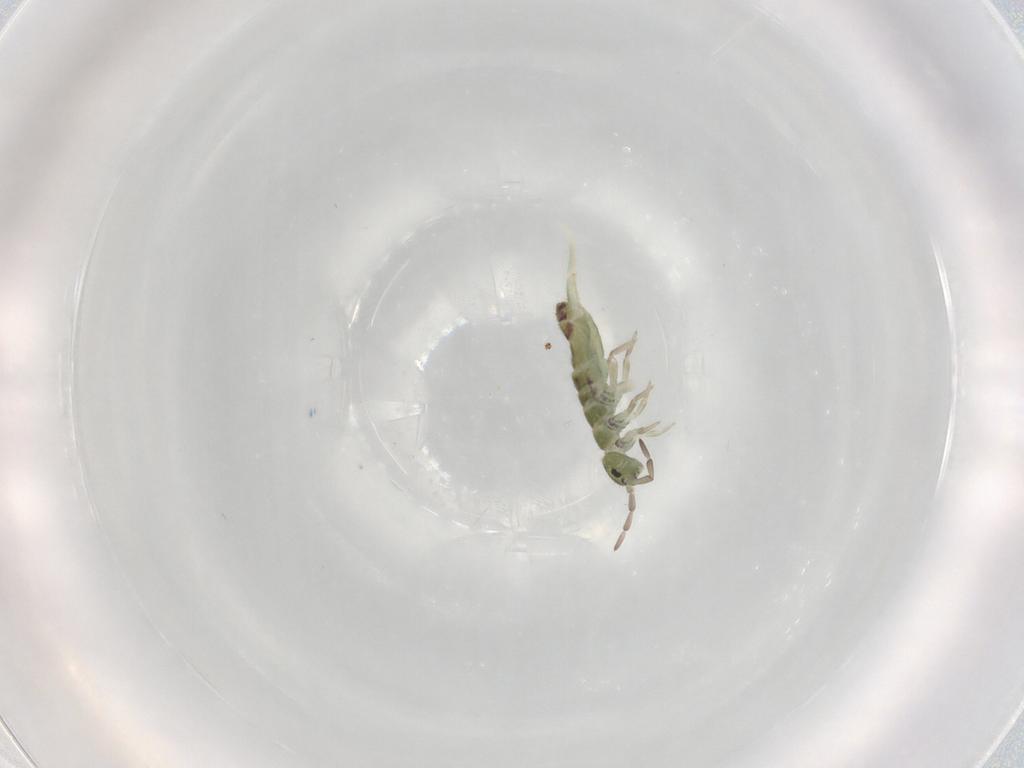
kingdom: Animalia
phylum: Arthropoda
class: Collembola
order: Entomobryomorpha
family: Isotomidae
